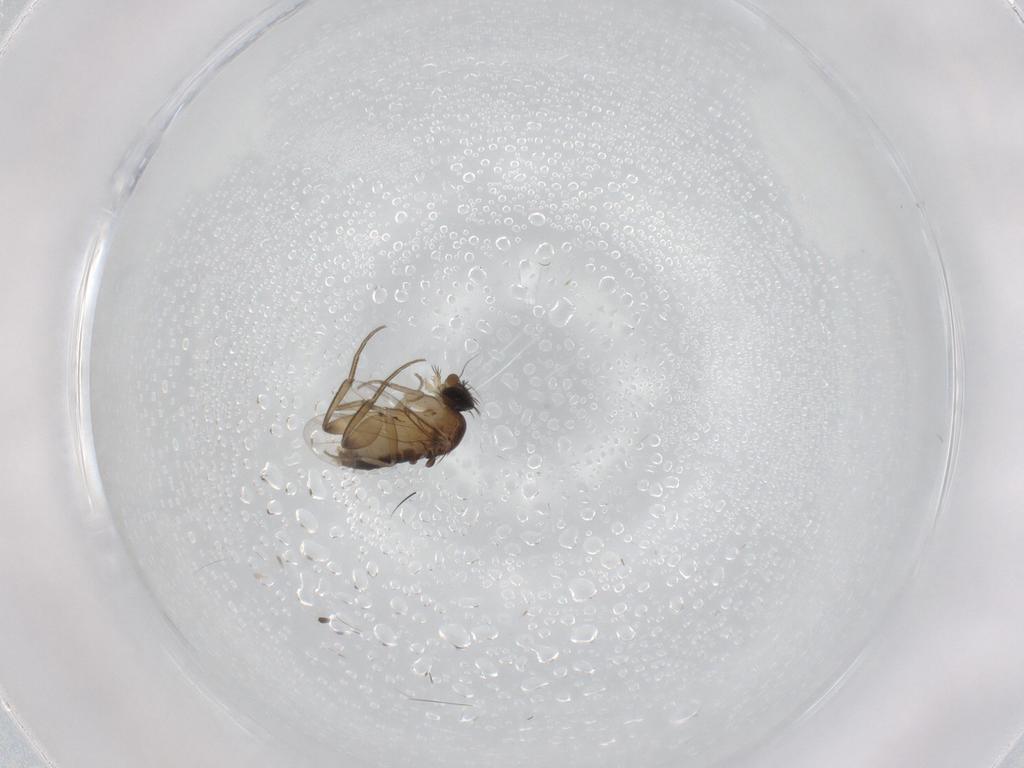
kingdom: Animalia
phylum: Arthropoda
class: Insecta
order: Diptera
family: Phoridae
